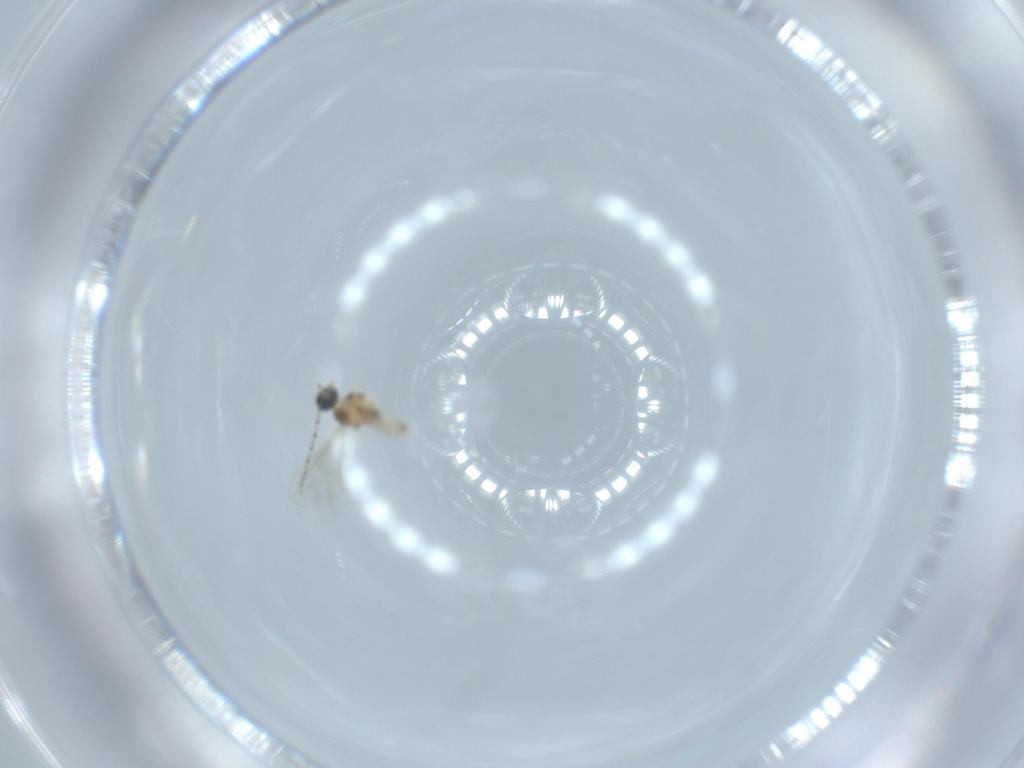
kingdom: Animalia
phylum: Arthropoda
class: Insecta
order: Diptera
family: Cecidomyiidae
